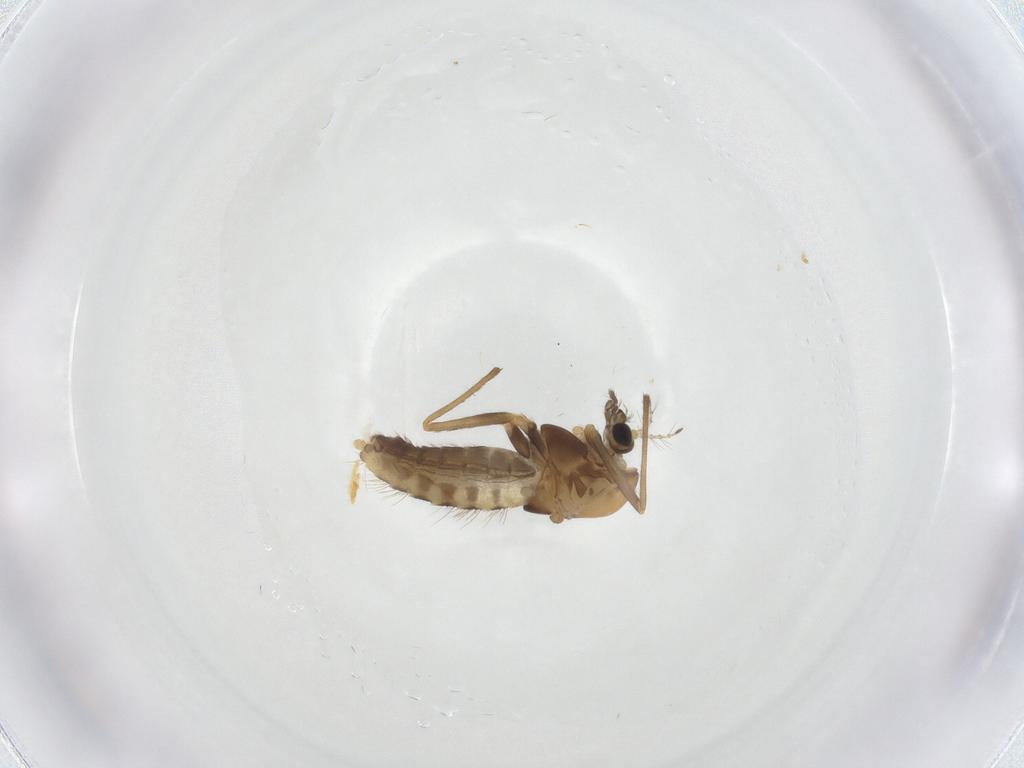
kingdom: Animalia
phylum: Arthropoda
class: Insecta
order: Diptera
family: Chironomidae
